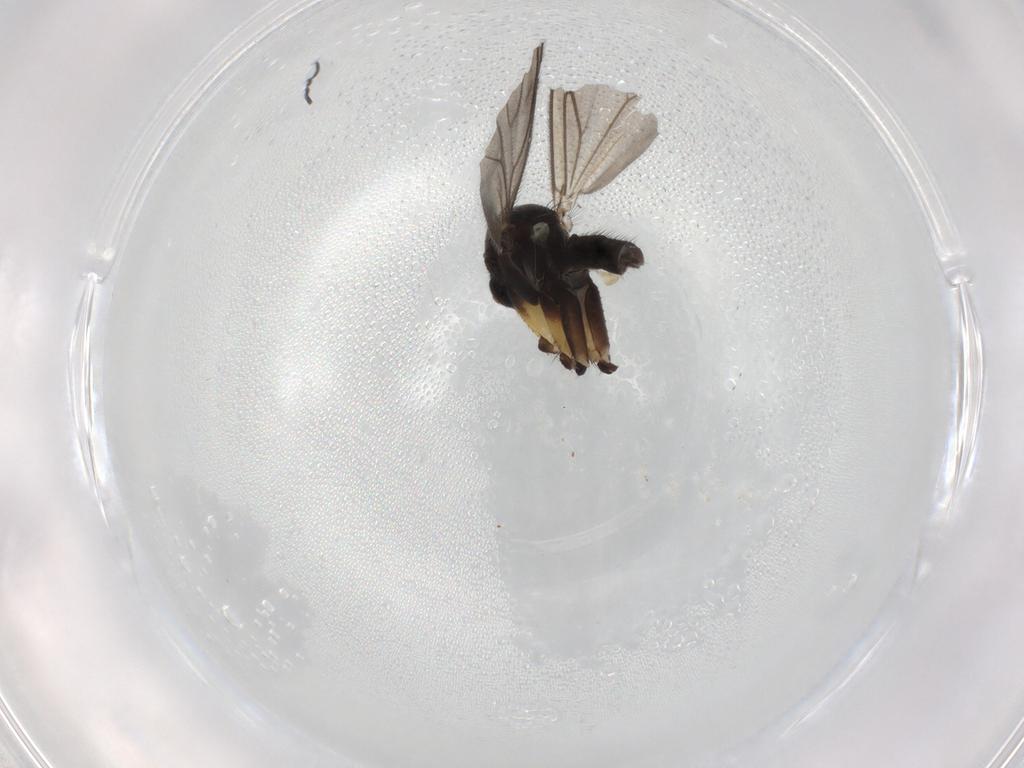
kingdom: Animalia
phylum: Arthropoda
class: Insecta
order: Diptera
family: Mycetophilidae
